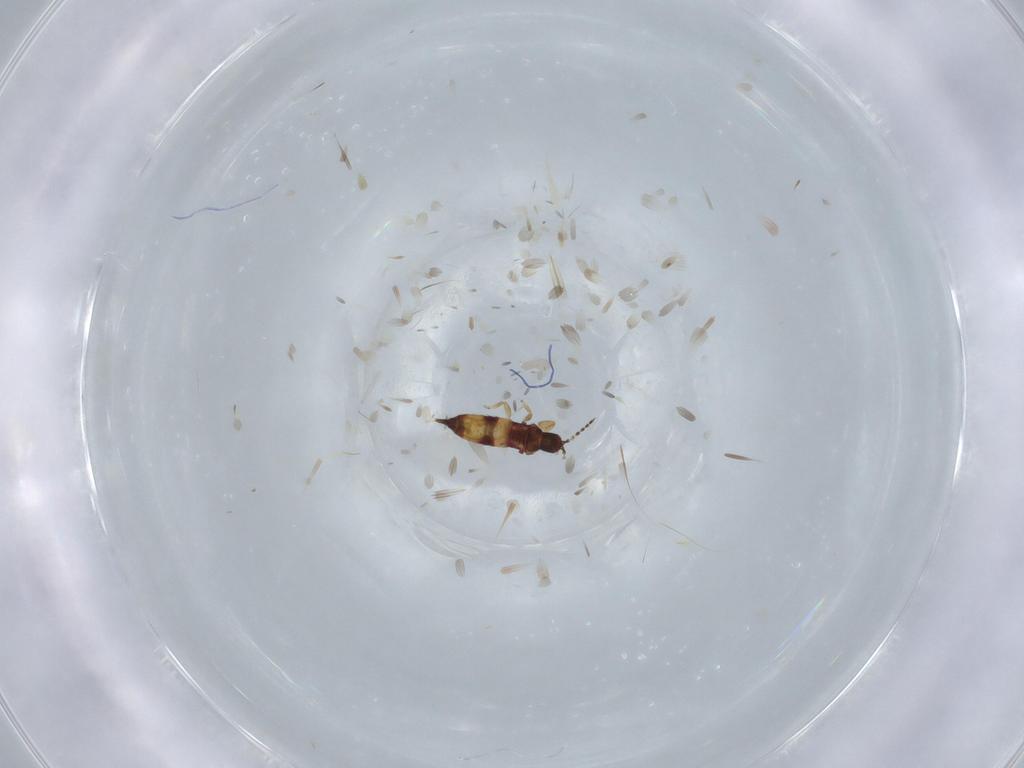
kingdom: Animalia
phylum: Arthropoda
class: Insecta
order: Thysanoptera
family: Phlaeothripidae
